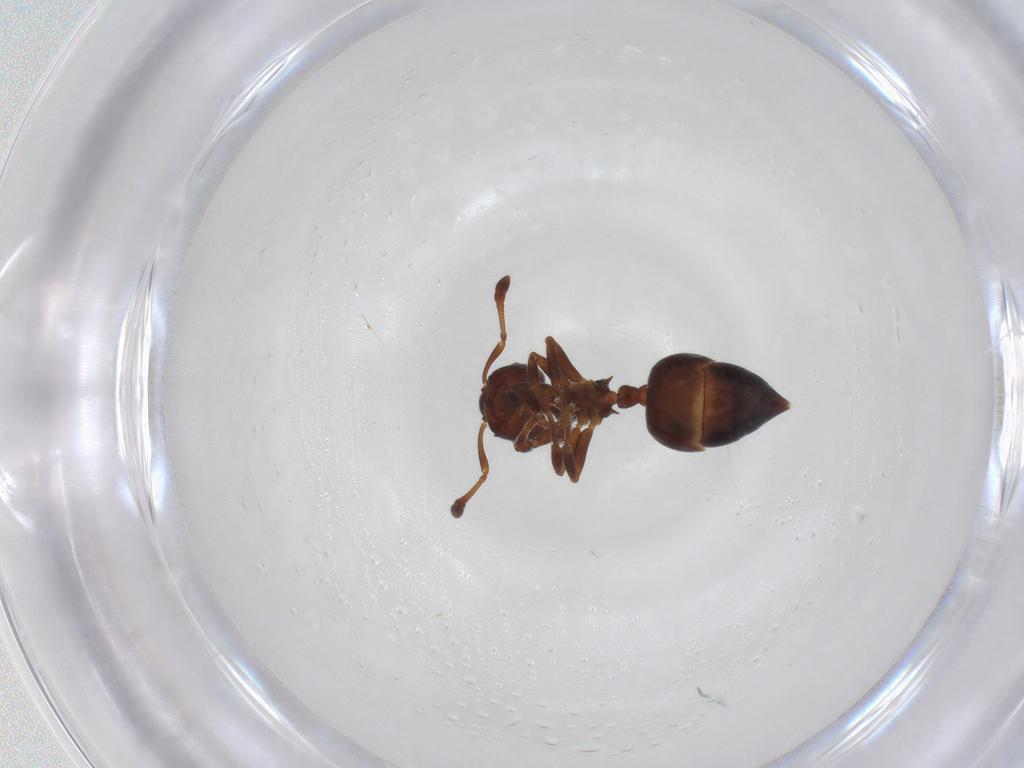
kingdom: Animalia
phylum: Arthropoda
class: Insecta
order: Hymenoptera
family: Formicidae
